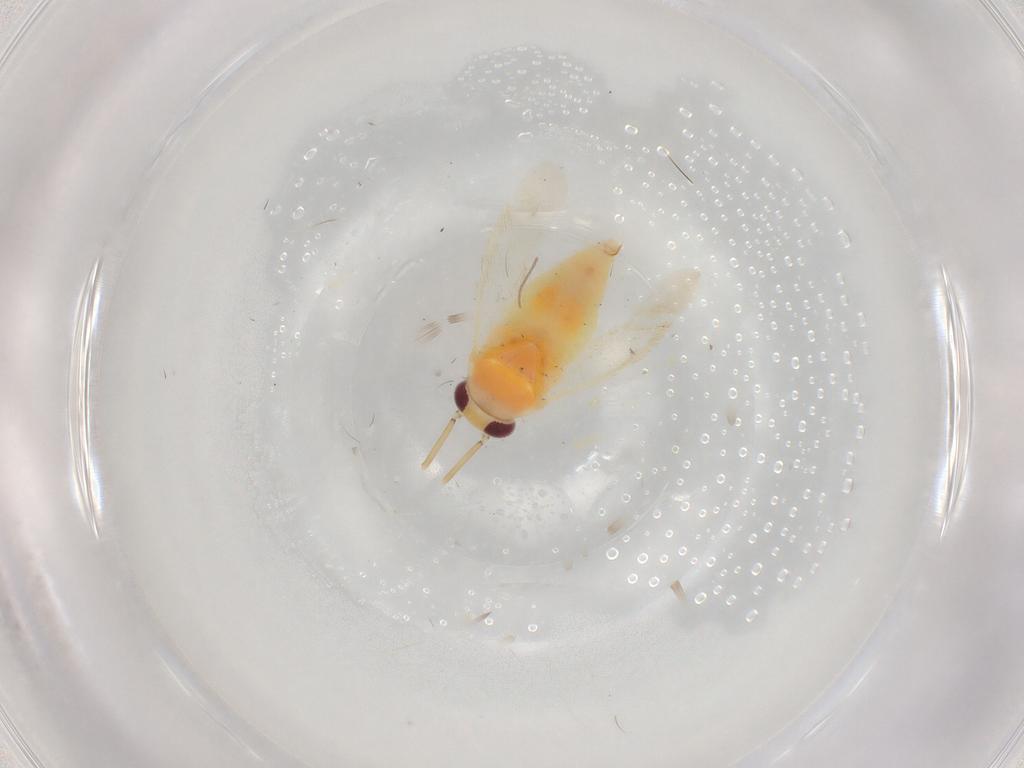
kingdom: Animalia
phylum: Arthropoda
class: Insecta
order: Hemiptera
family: Miridae
